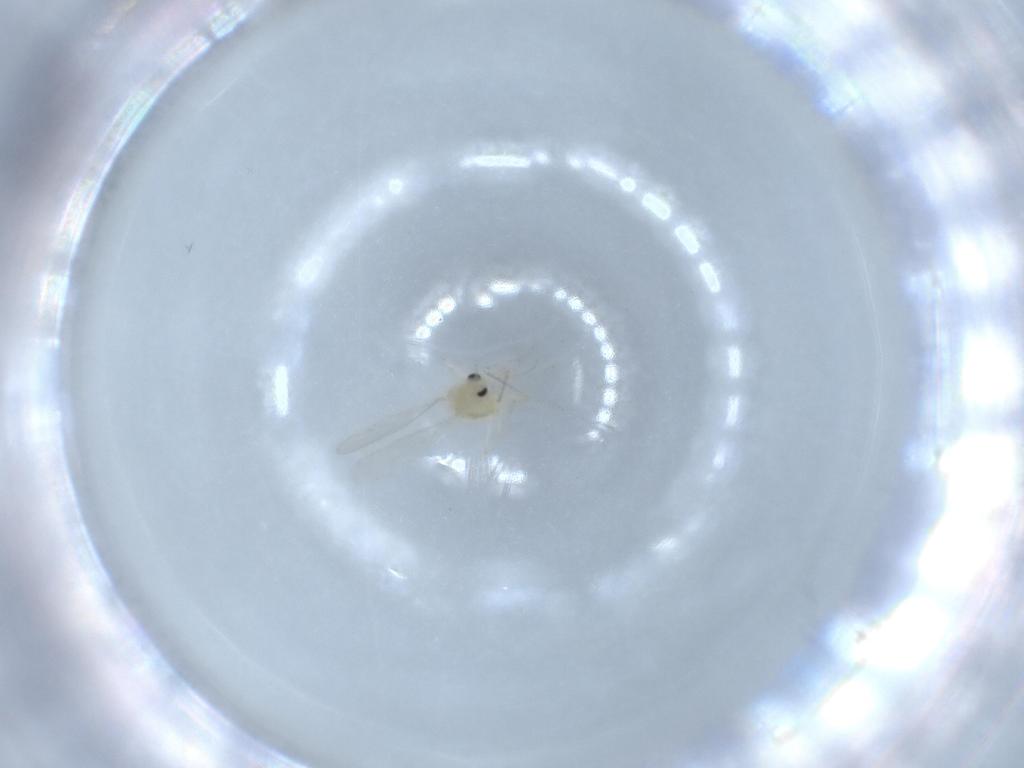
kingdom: Animalia
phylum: Arthropoda
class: Insecta
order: Diptera
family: Chironomidae
